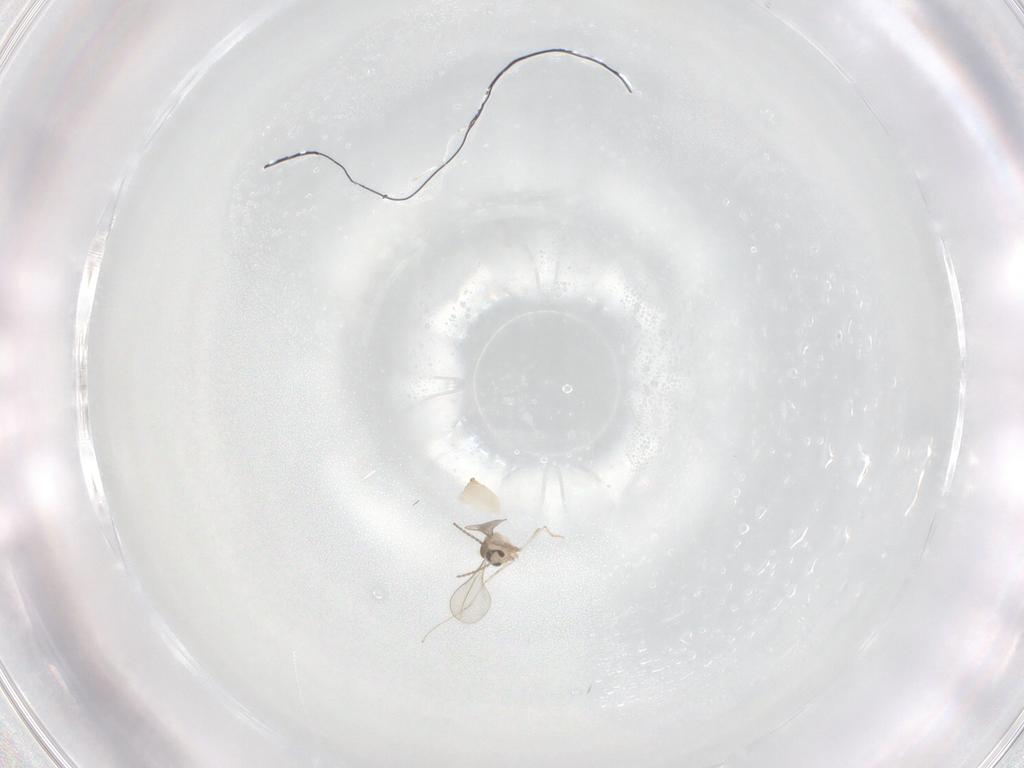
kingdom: Animalia
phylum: Arthropoda
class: Insecta
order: Diptera
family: Cecidomyiidae
